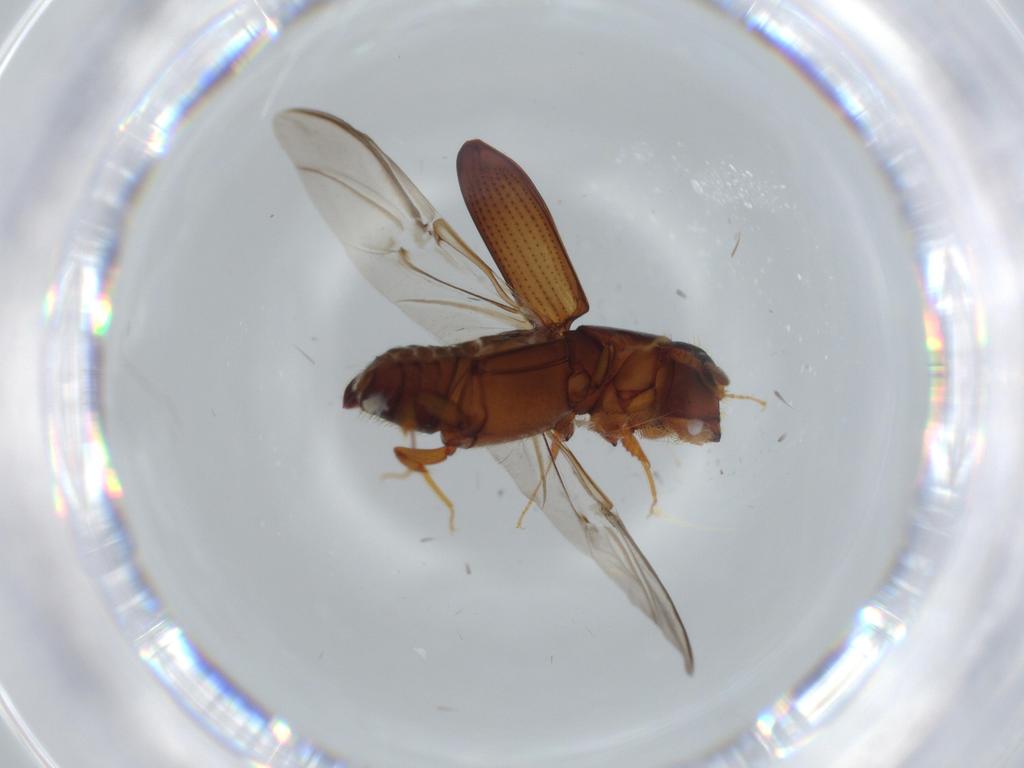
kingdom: Animalia
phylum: Arthropoda
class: Insecta
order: Coleoptera
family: Staphylinidae
